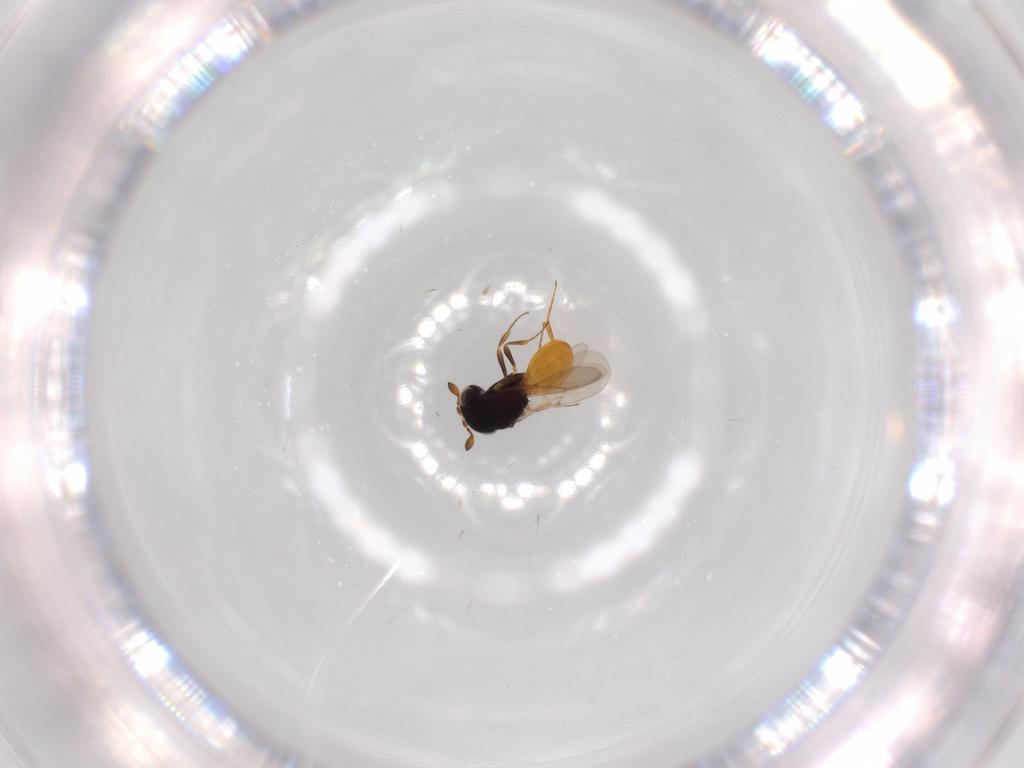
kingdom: Animalia
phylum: Arthropoda
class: Insecta
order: Hymenoptera
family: Scelionidae
